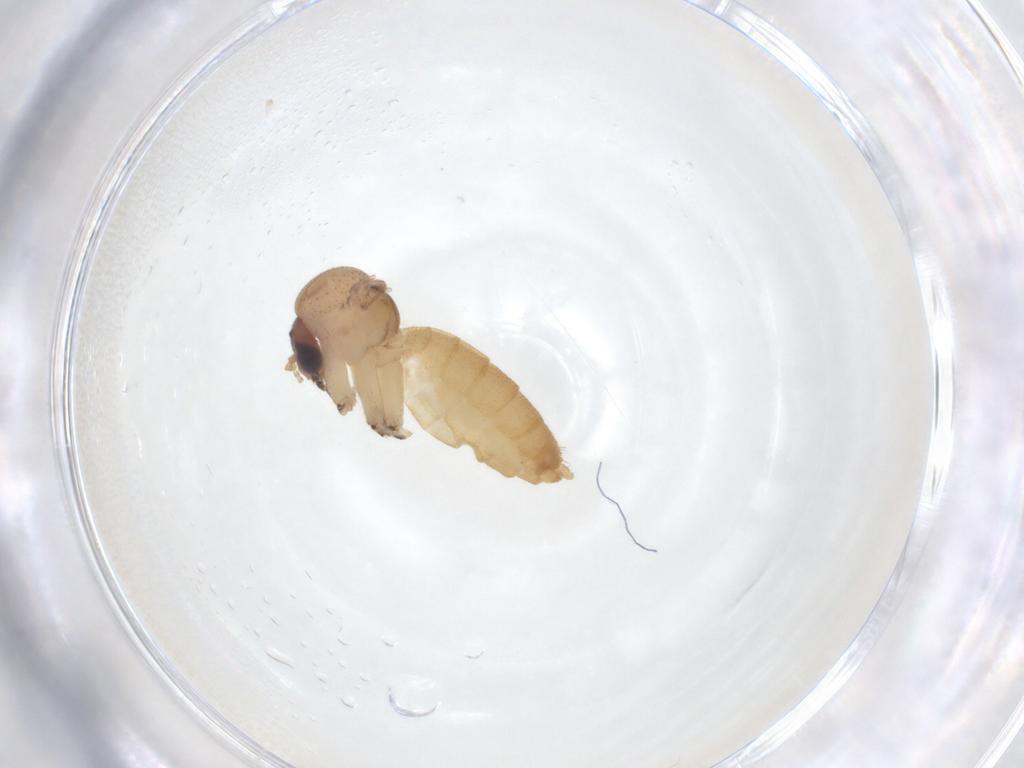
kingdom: Animalia
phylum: Arthropoda
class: Insecta
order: Diptera
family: Mycetophilidae
